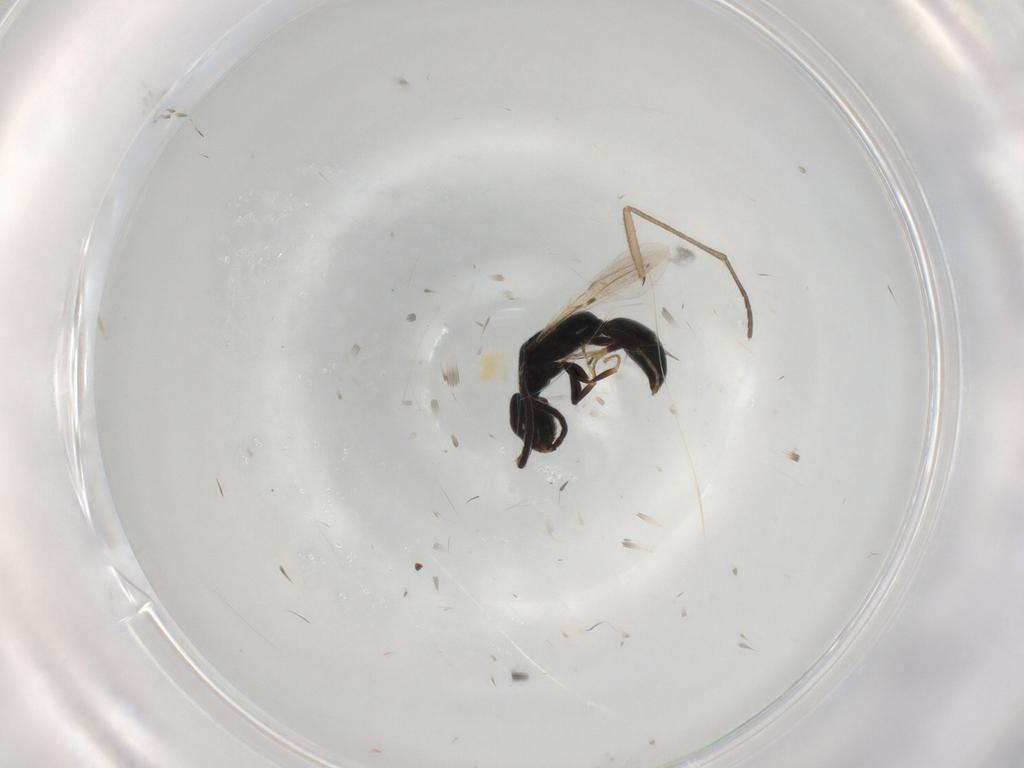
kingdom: Animalia
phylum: Arthropoda
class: Insecta
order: Hymenoptera
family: Bethylidae
